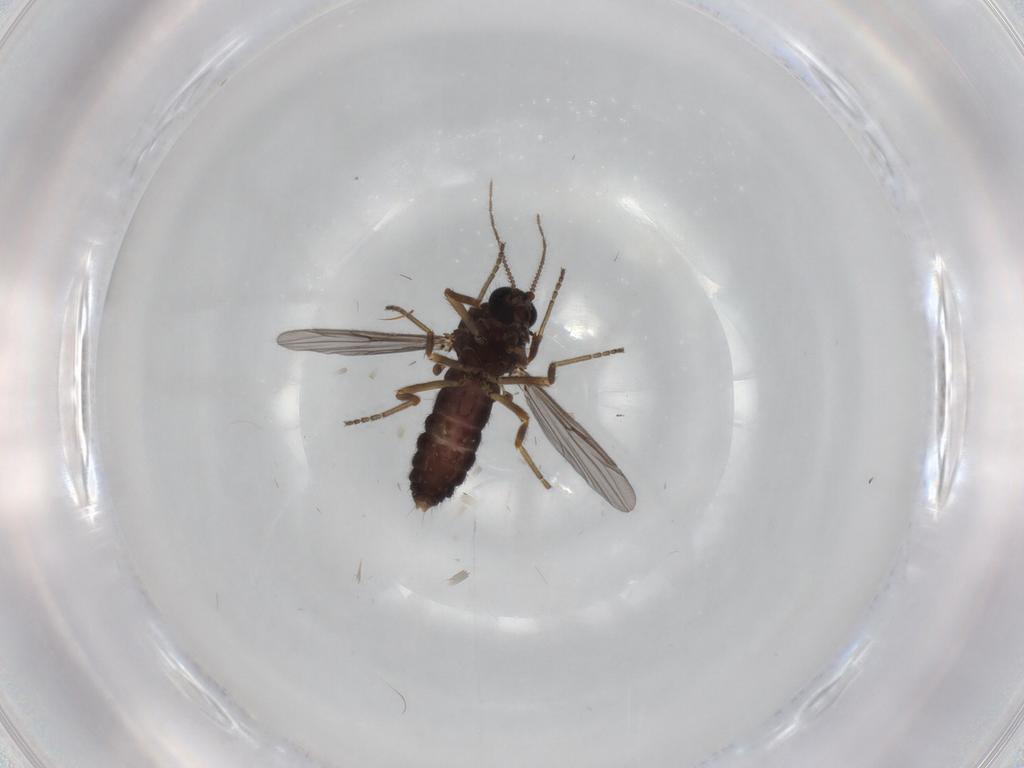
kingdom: Animalia
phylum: Arthropoda
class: Insecta
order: Diptera
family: Ceratopogonidae
